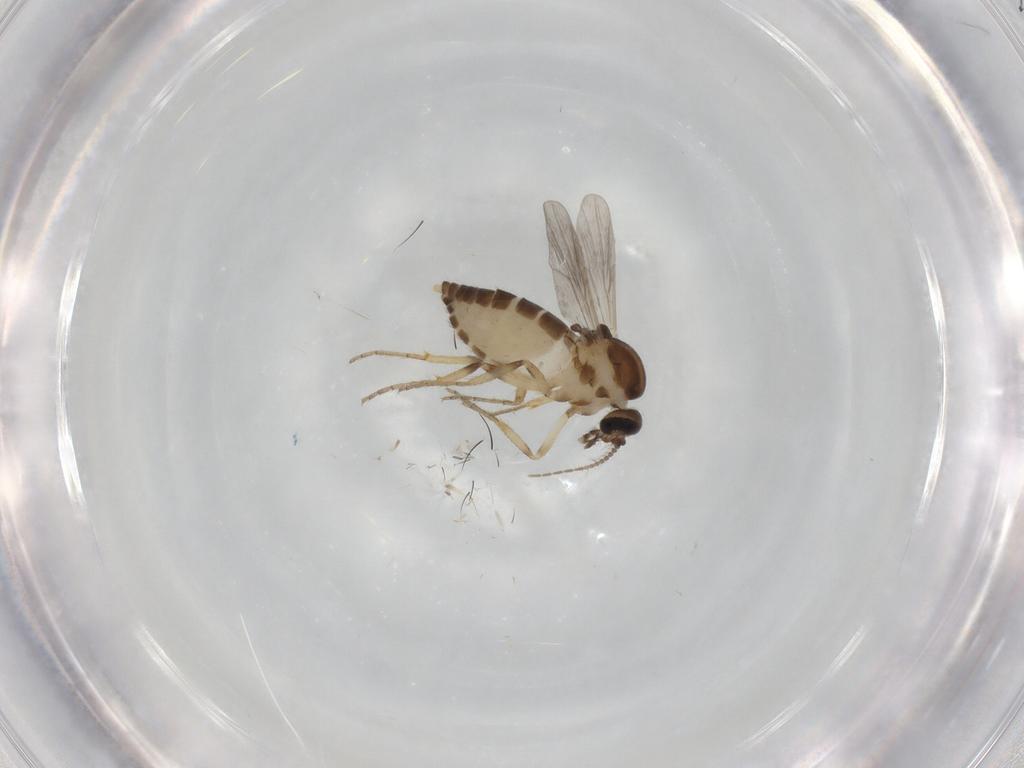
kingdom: Animalia
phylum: Arthropoda
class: Insecta
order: Diptera
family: Ceratopogonidae
